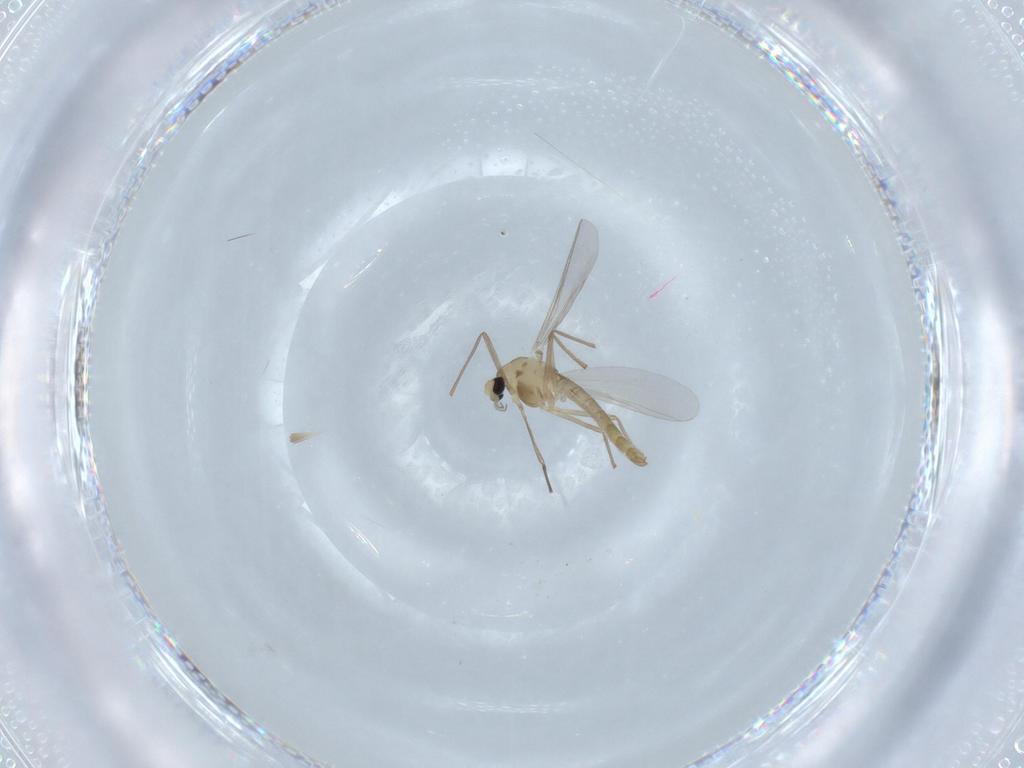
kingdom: Animalia
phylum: Arthropoda
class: Insecta
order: Diptera
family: Chironomidae
